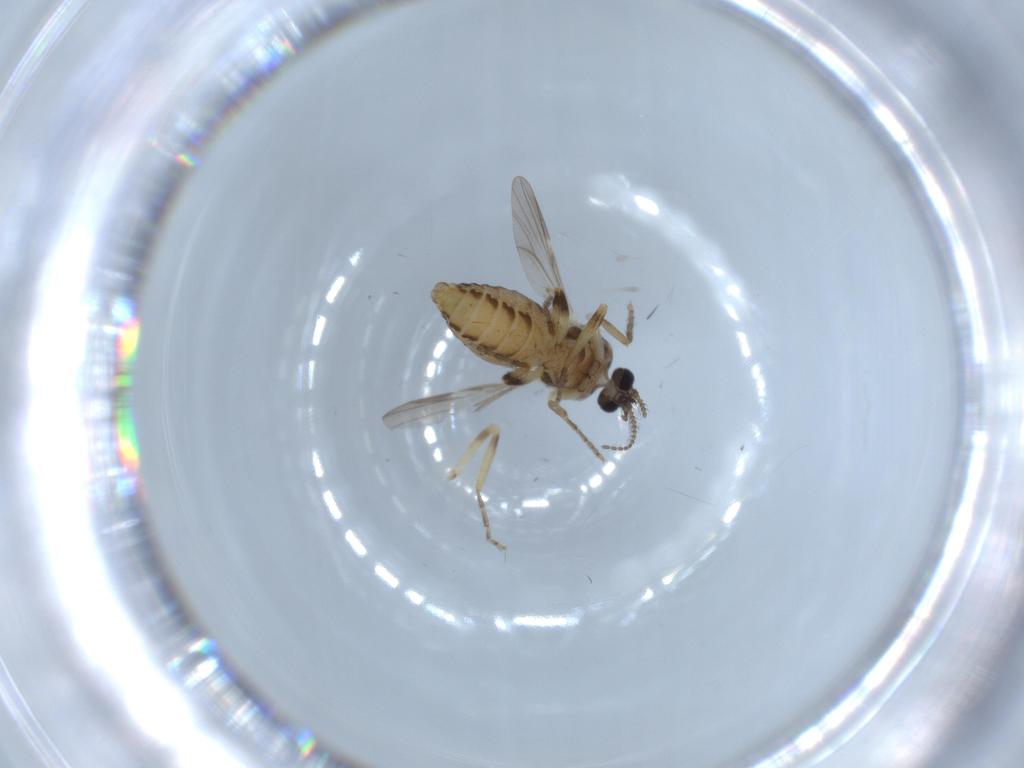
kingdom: Animalia
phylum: Arthropoda
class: Insecta
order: Diptera
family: Ceratopogonidae
